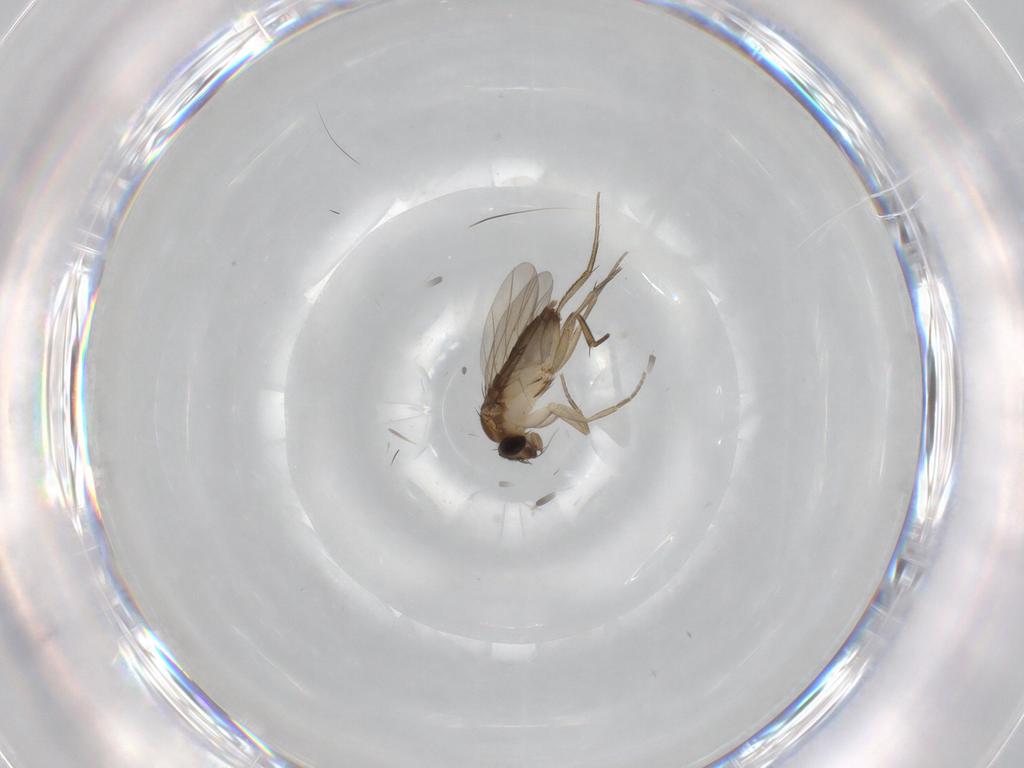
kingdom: Animalia
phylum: Arthropoda
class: Insecta
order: Diptera
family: Phoridae
